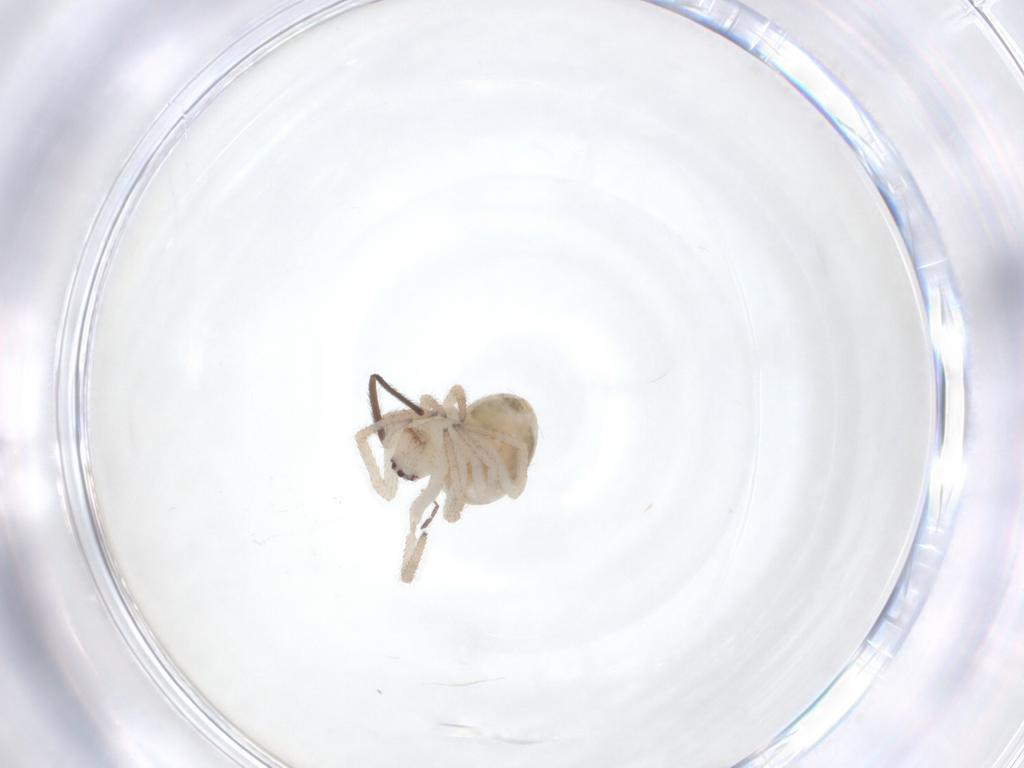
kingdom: Animalia
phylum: Arthropoda
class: Arachnida
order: Araneae
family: Theridiidae
